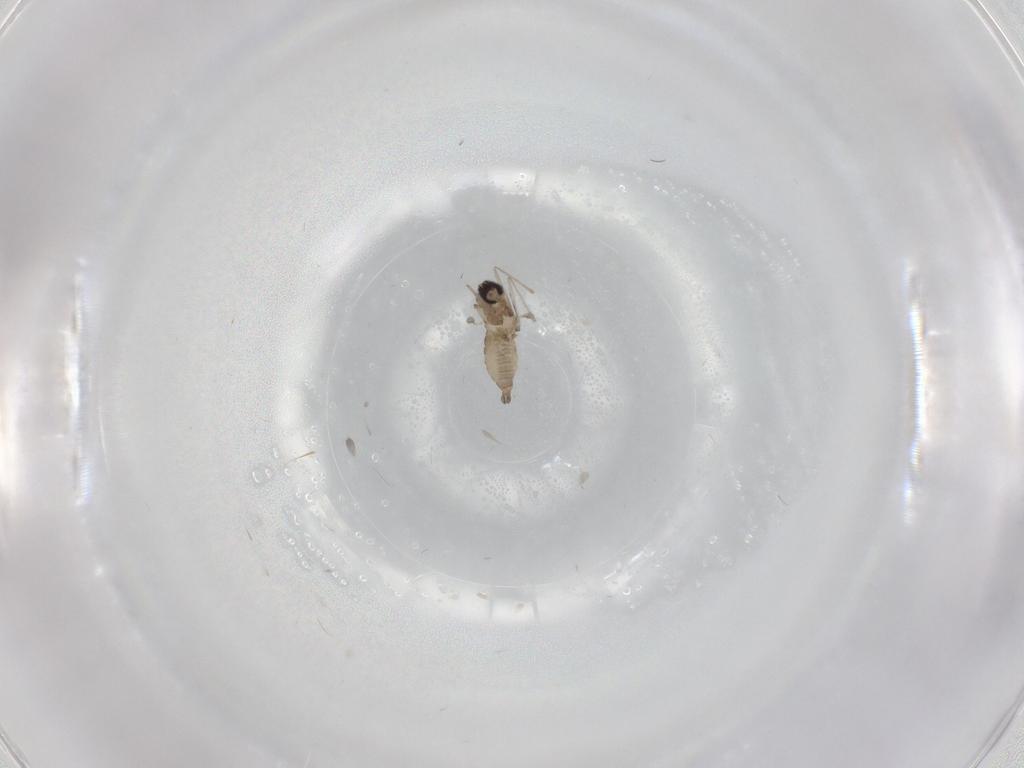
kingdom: Animalia
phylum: Arthropoda
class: Insecta
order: Diptera
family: Cecidomyiidae
